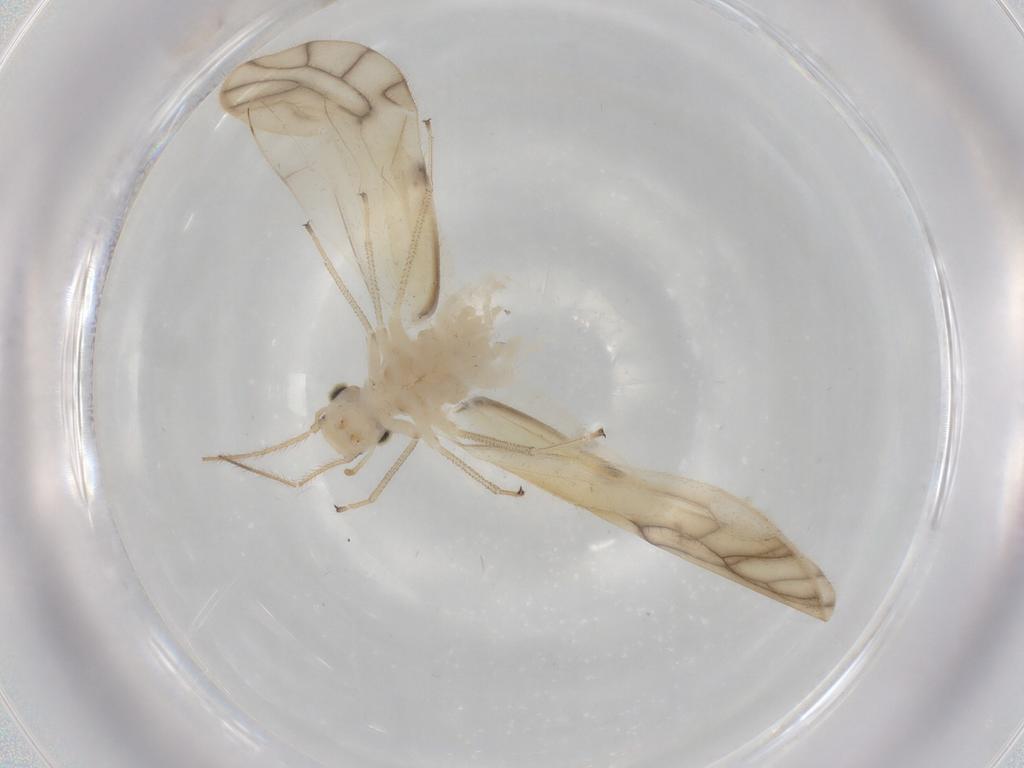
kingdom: Animalia
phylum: Arthropoda
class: Insecta
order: Psocodea
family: Caeciliusidae
